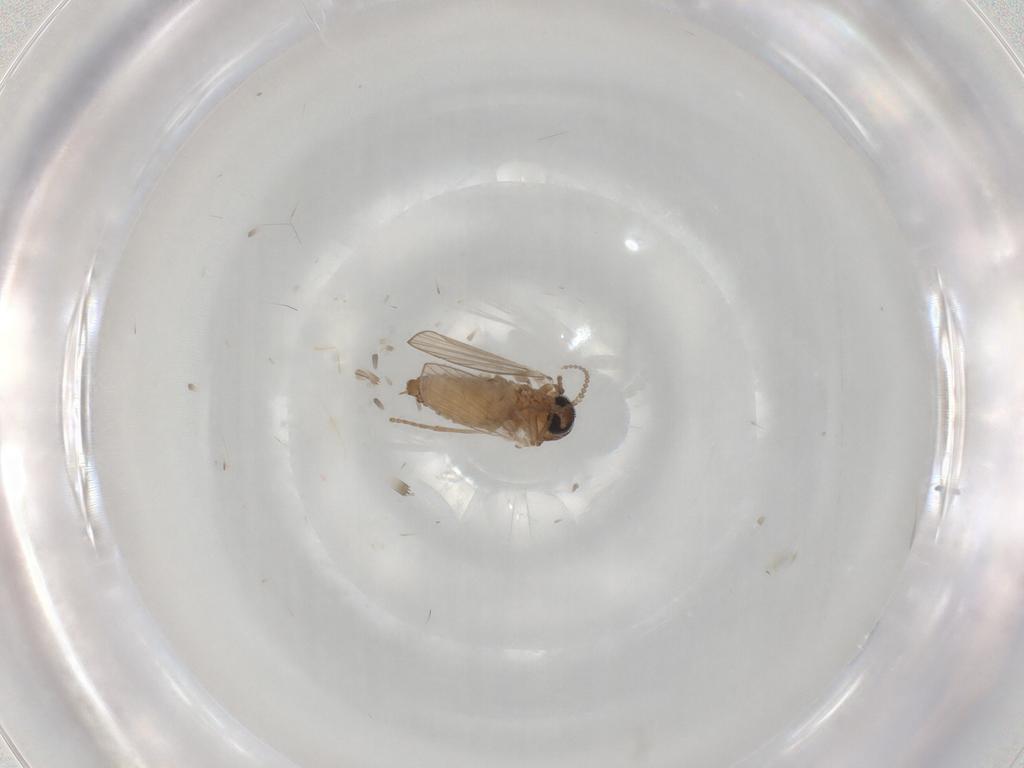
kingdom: Animalia
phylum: Arthropoda
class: Insecta
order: Diptera
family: Psychodidae
